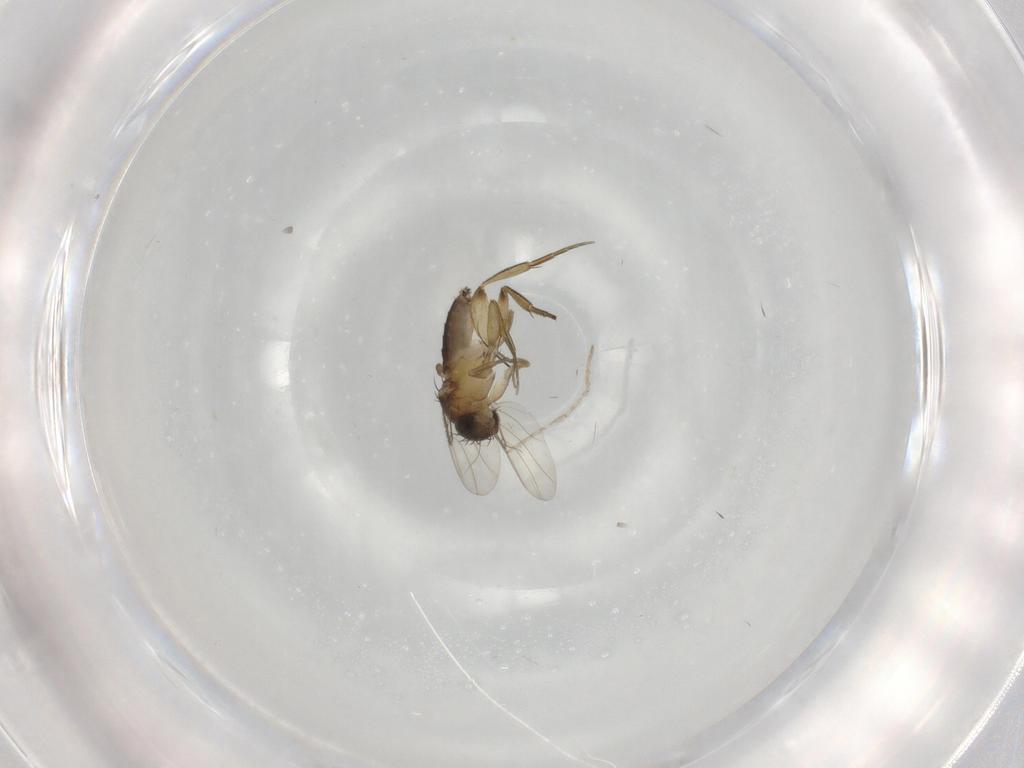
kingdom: Animalia
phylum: Arthropoda
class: Insecta
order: Diptera
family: Phoridae
